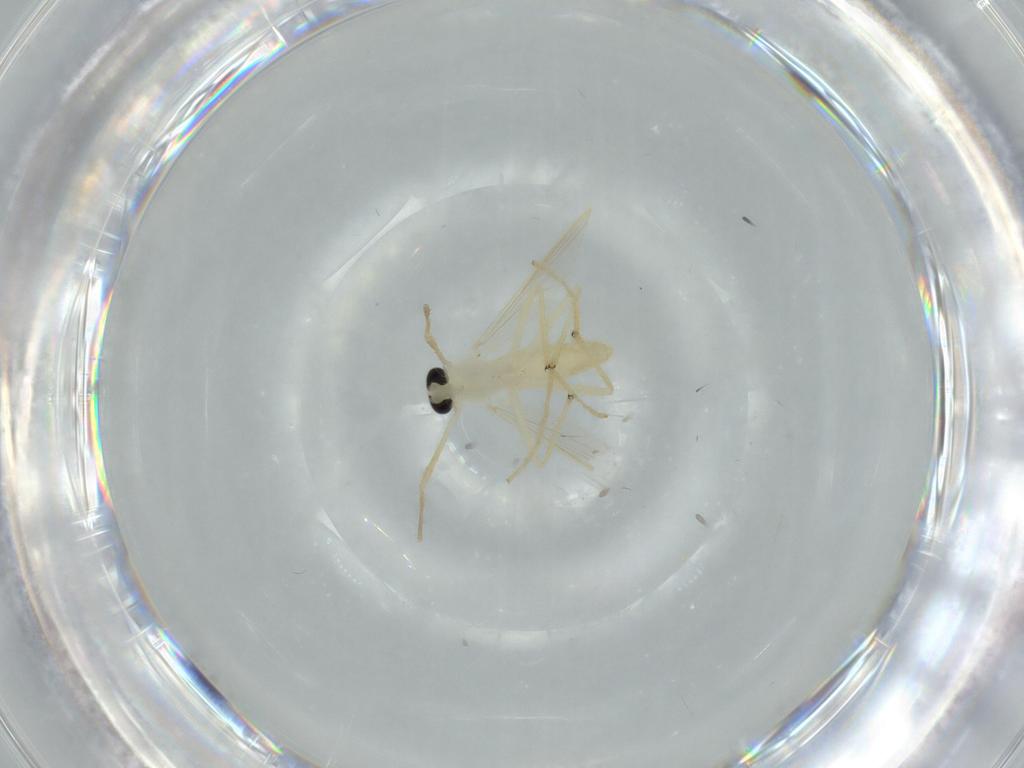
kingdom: Animalia
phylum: Arthropoda
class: Insecta
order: Diptera
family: Chironomidae
